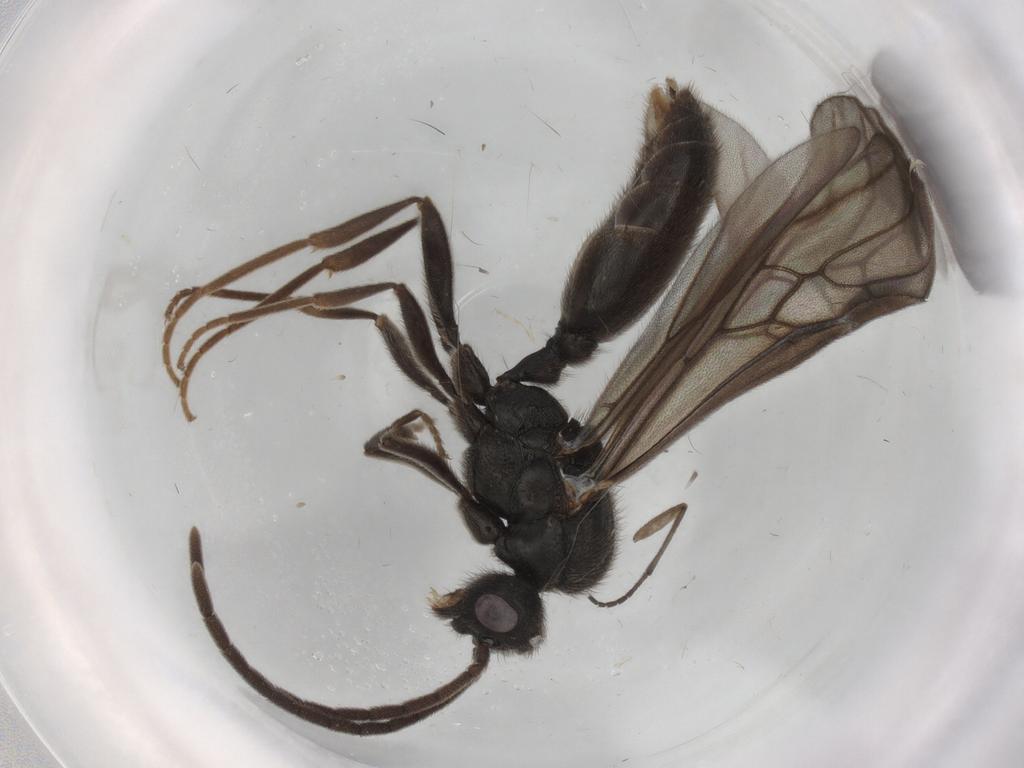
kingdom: Animalia
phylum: Arthropoda
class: Insecta
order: Hymenoptera
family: Formicidae
